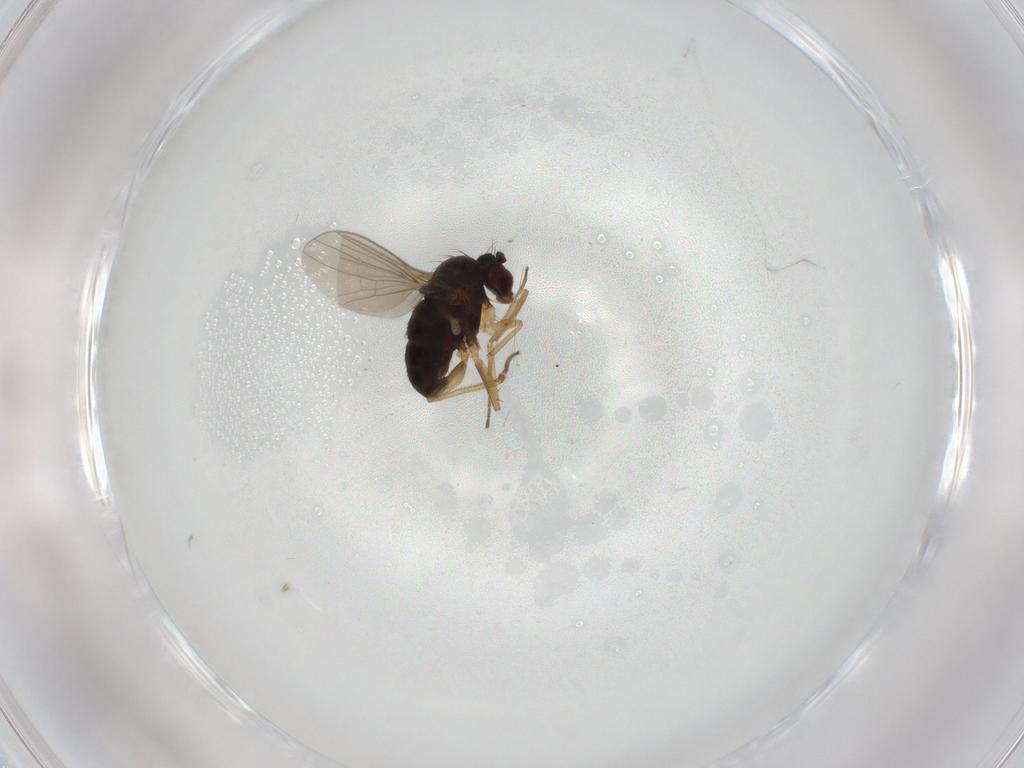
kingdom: Animalia
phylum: Arthropoda
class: Insecta
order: Diptera
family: Dolichopodidae
